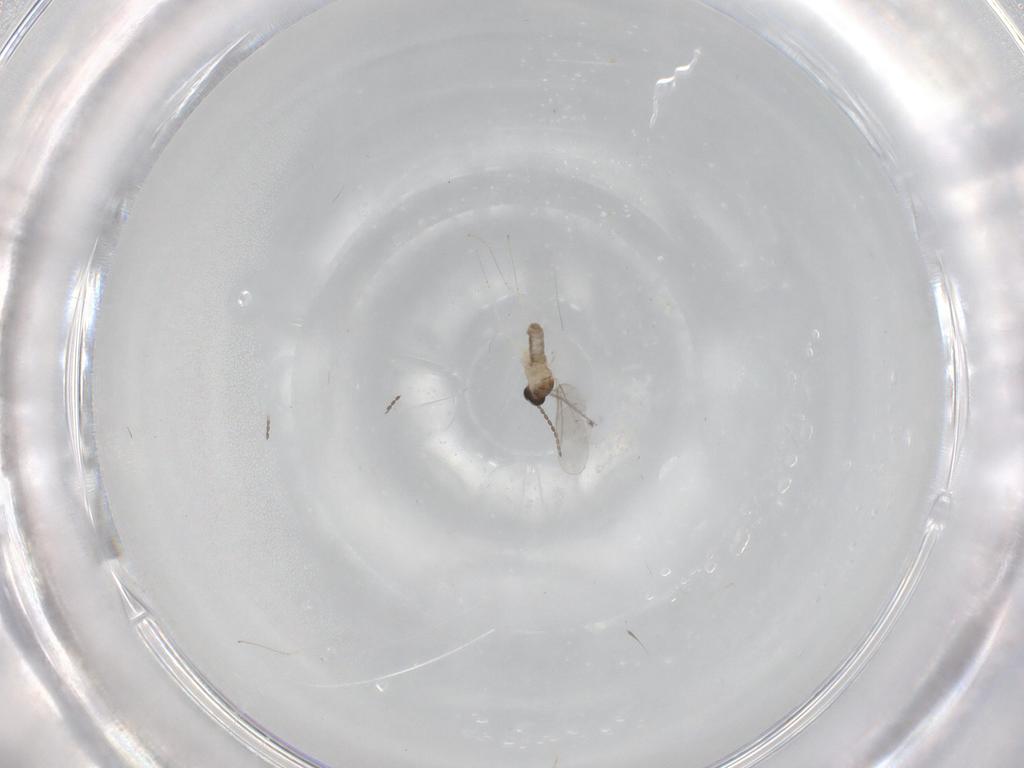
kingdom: Animalia
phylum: Arthropoda
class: Insecta
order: Diptera
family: Cecidomyiidae
